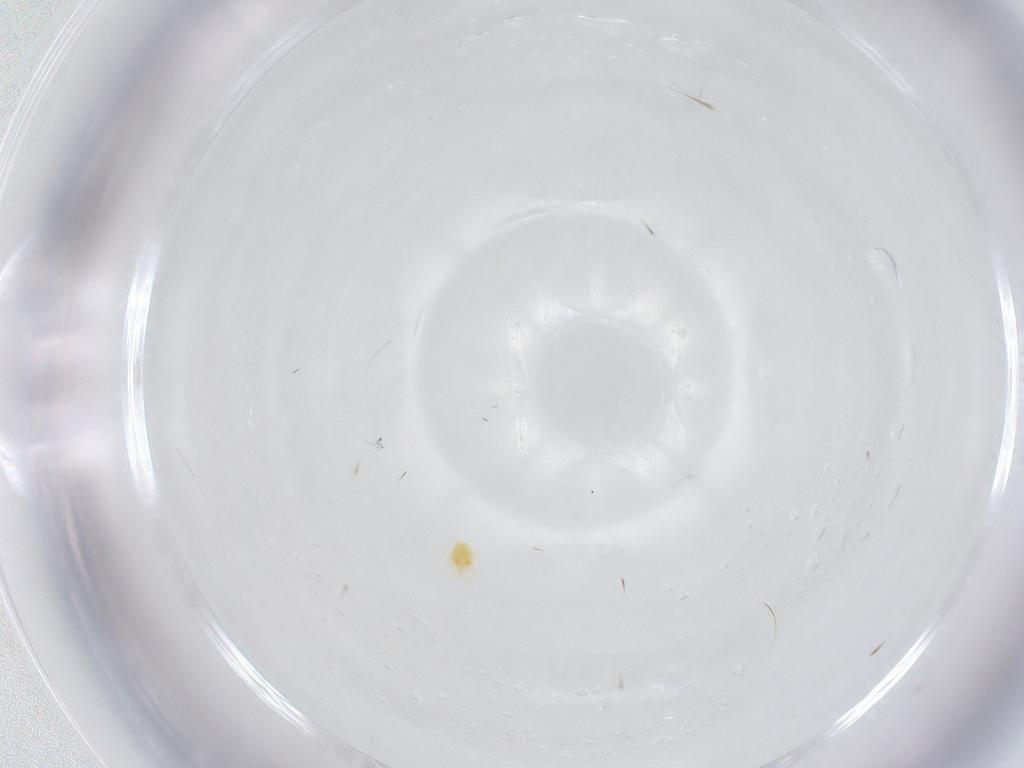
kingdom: Animalia
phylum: Arthropoda
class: Arachnida
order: Trombidiformes
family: Tetranychidae
